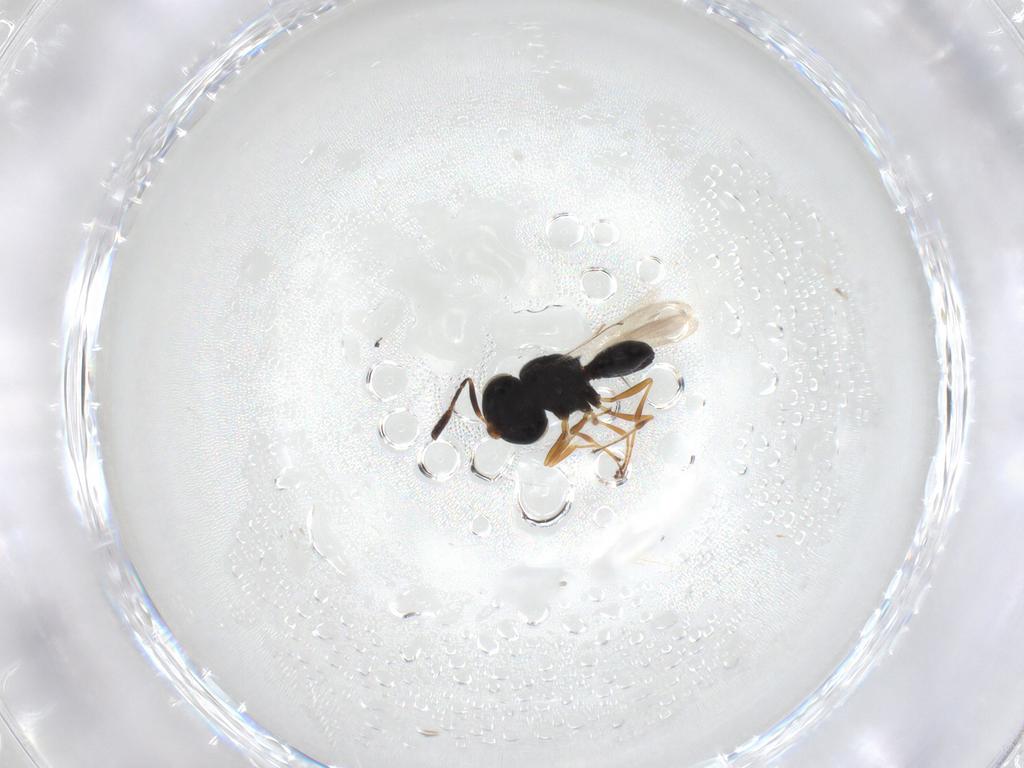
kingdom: Animalia
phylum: Arthropoda
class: Insecta
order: Hymenoptera
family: Scelionidae
